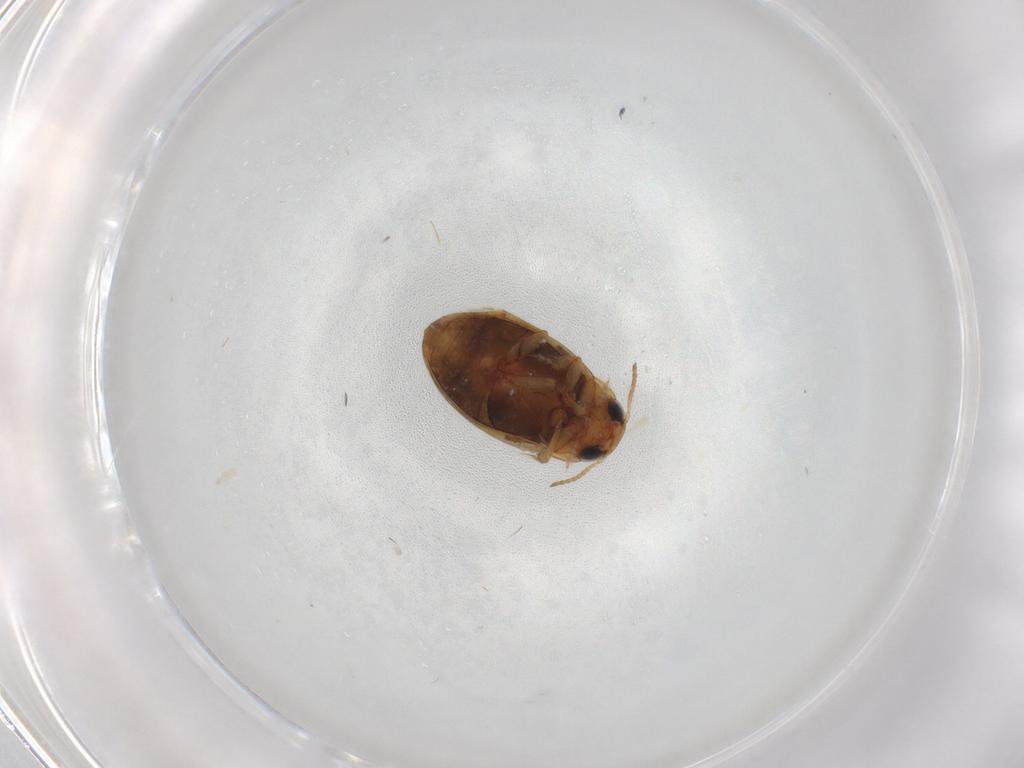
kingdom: Animalia
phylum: Arthropoda
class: Insecta
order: Coleoptera
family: Dytiscidae
